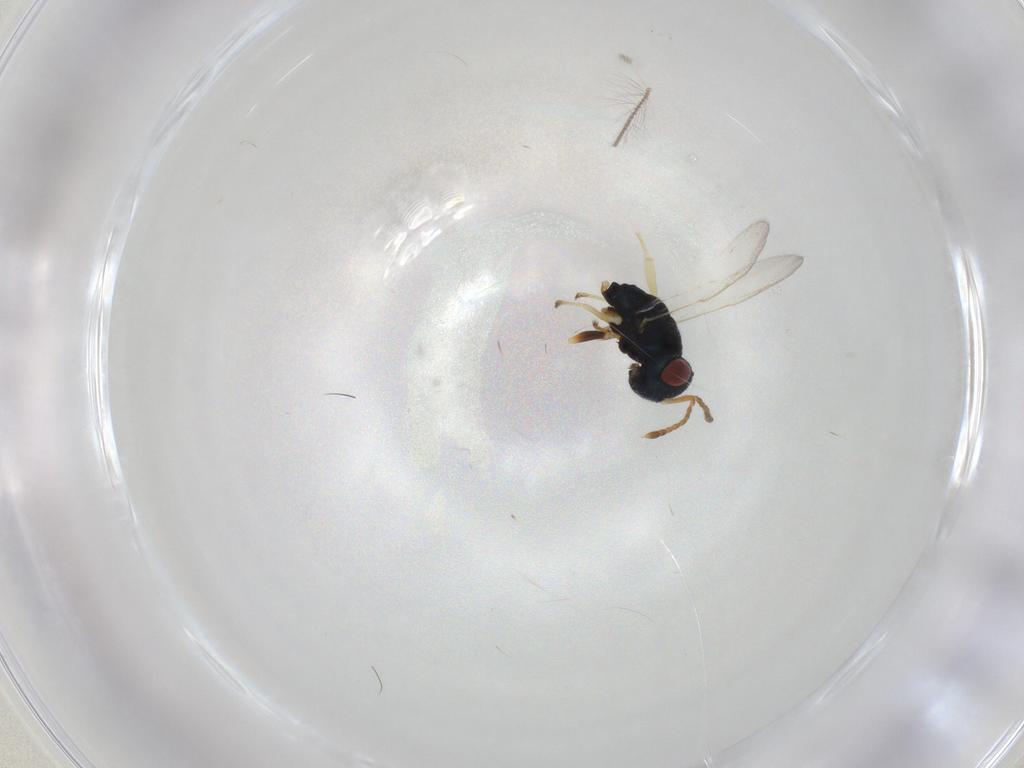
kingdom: Animalia
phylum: Arthropoda
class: Insecta
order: Hymenoptera
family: Pteromalidae
